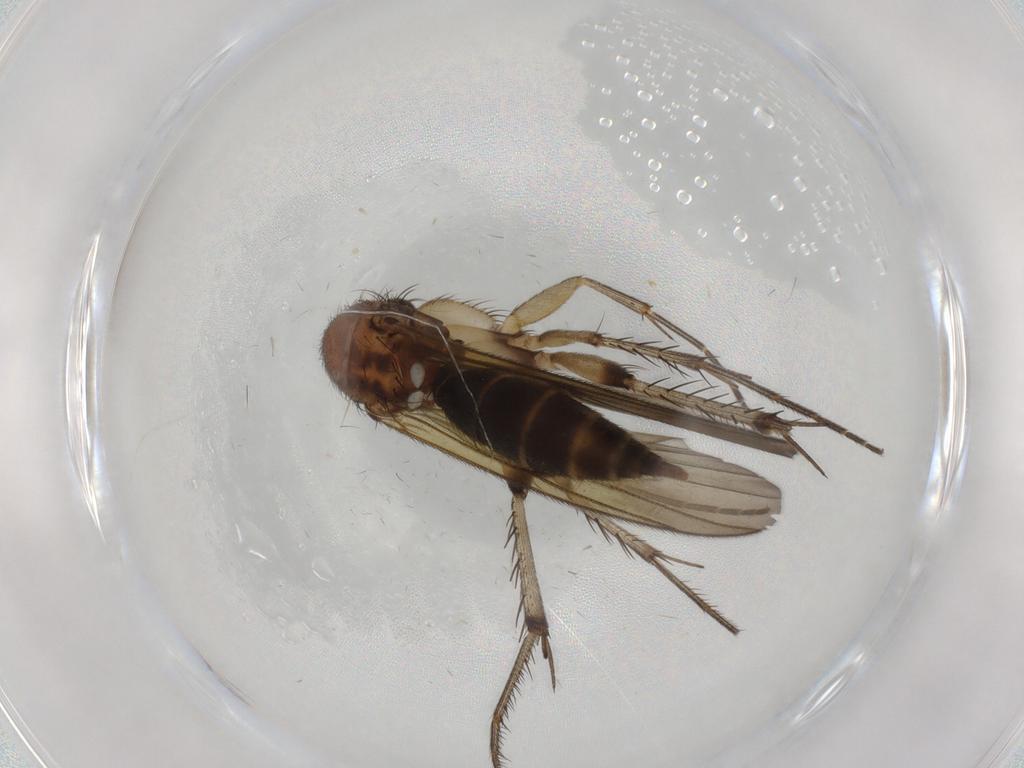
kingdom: Animalia
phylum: Arthropoda
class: Insecta
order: Diptera
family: Mycetophilidae
